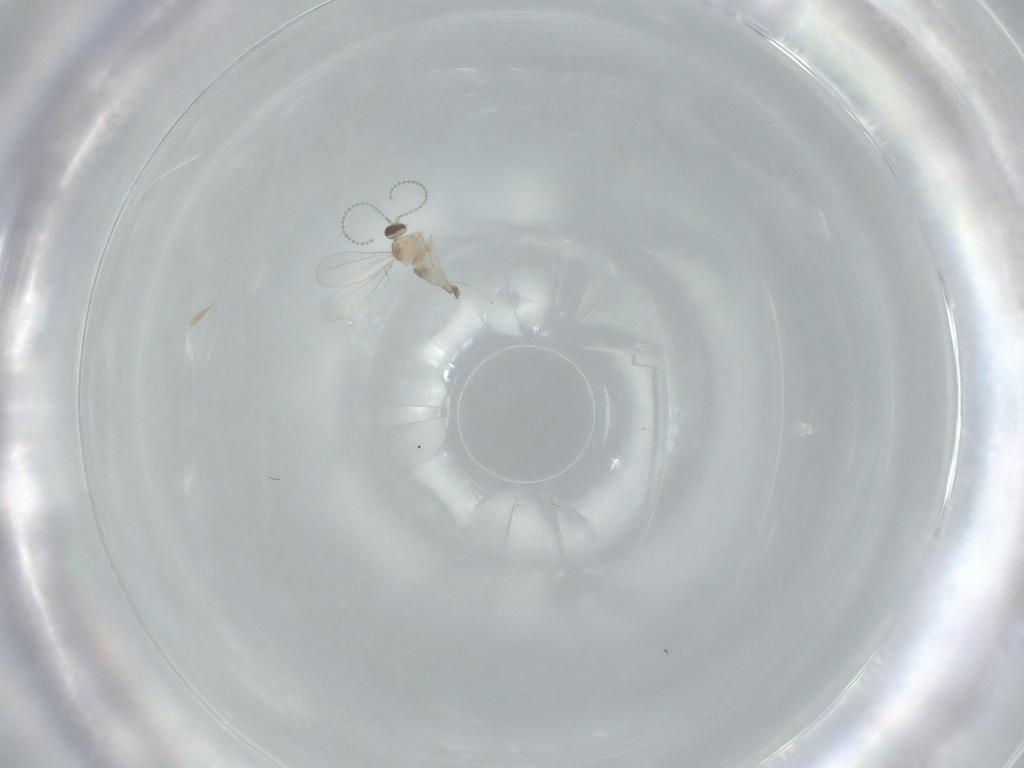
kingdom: Animalia
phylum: Arthropoda
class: Insecta
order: Diptera
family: Cecidomyiidae
